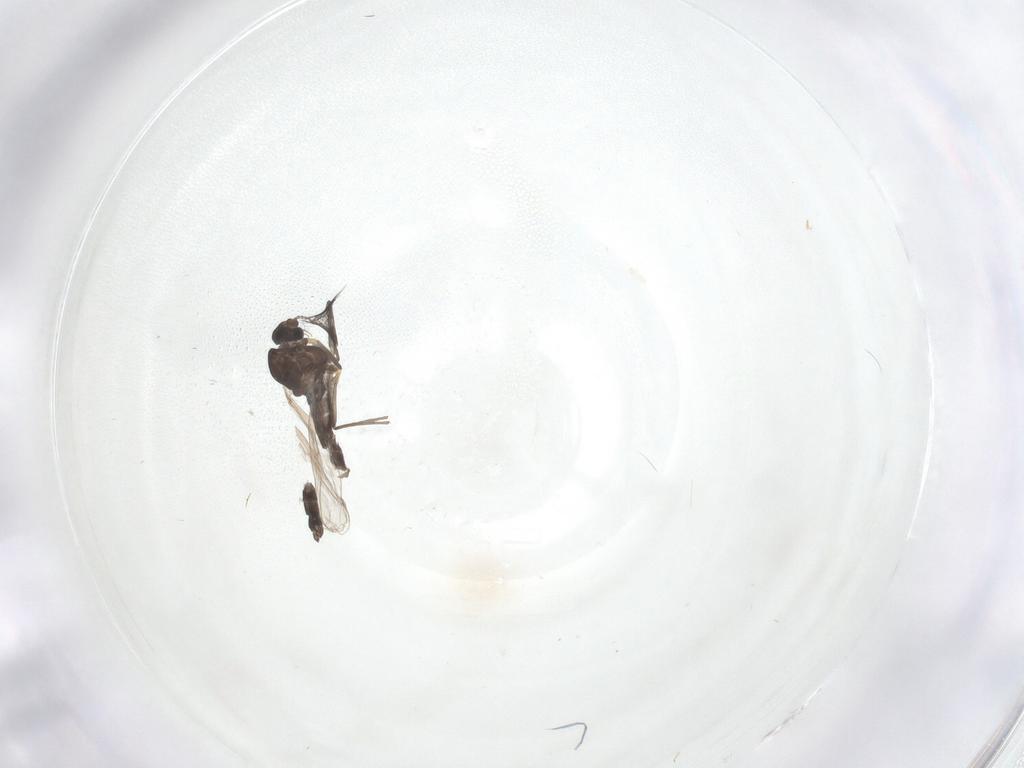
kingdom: Animalia
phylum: Arthropoda
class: Insecta
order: Diptera
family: Chironomidae
